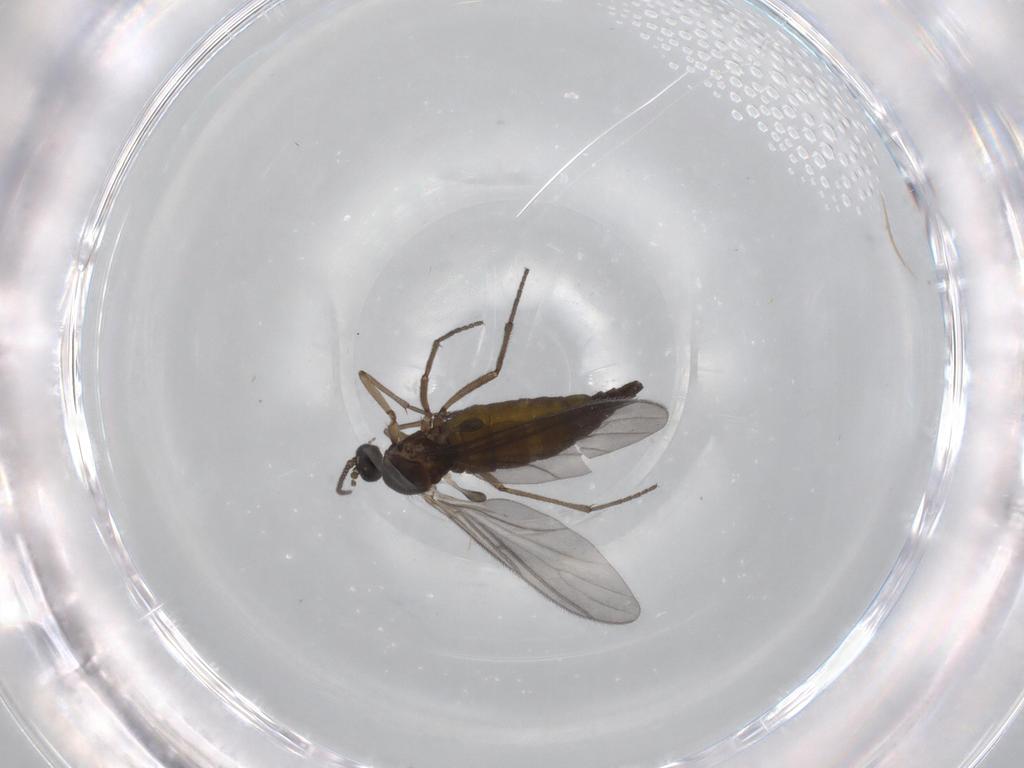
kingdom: Animalia
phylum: Arthropoda
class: Insecta
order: Diptera
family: Sciaridae
